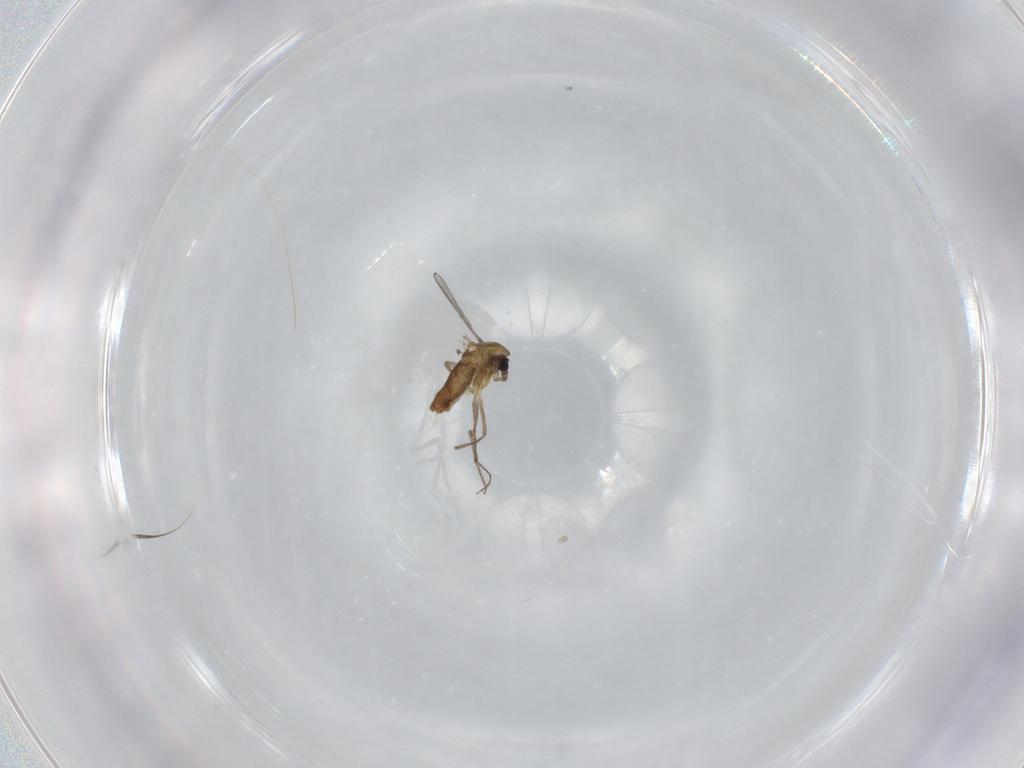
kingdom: Animalia
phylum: Arthropoda
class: Insecta
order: Diptera
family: Chironomidae
